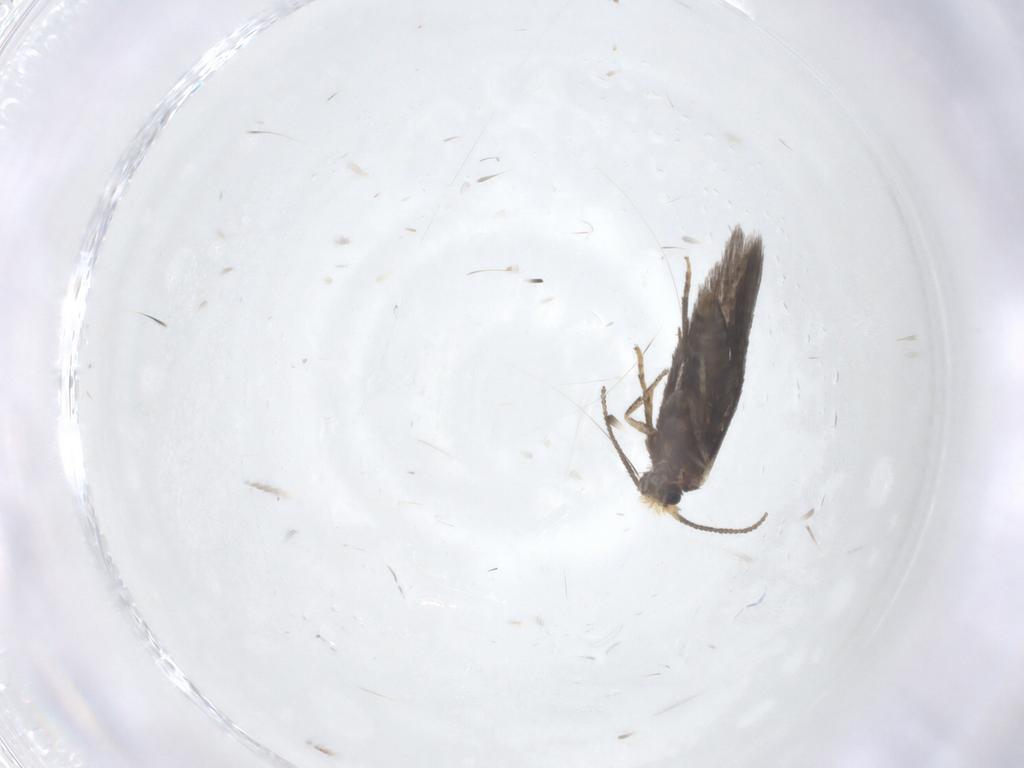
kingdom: Animalia
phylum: Arthropoda
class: Insecta
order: Lepidoptera
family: Nepticulidae
